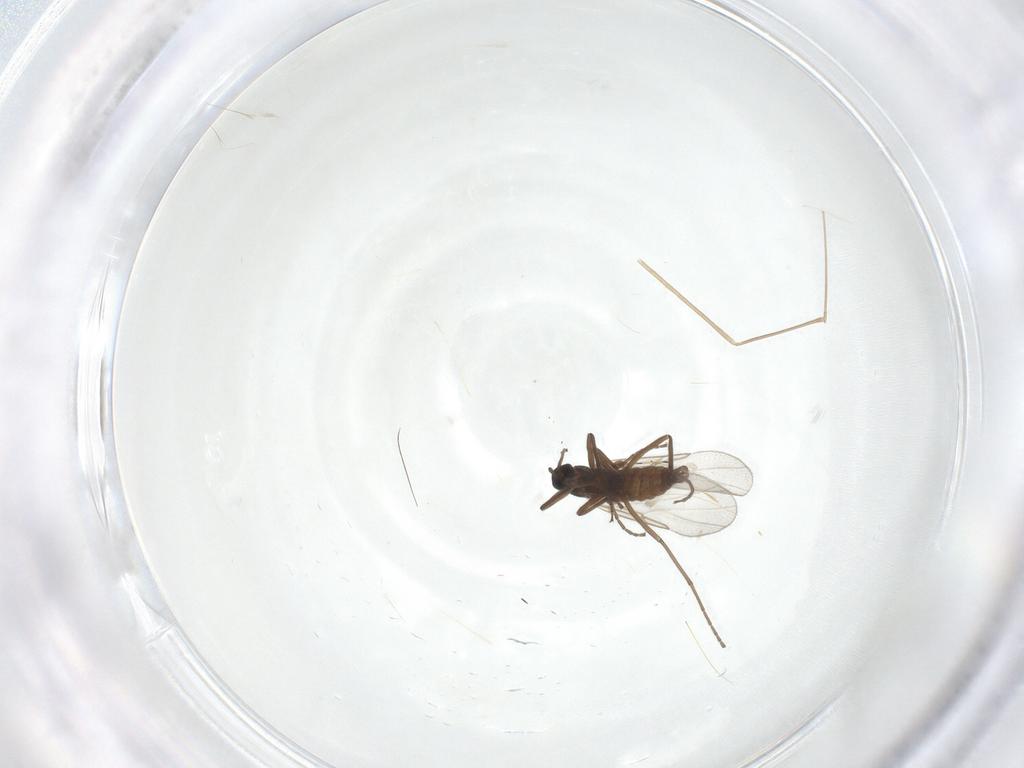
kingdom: Animalia
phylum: Arthropoda
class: Insecta
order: Diptera
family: Cecidomyiidae
